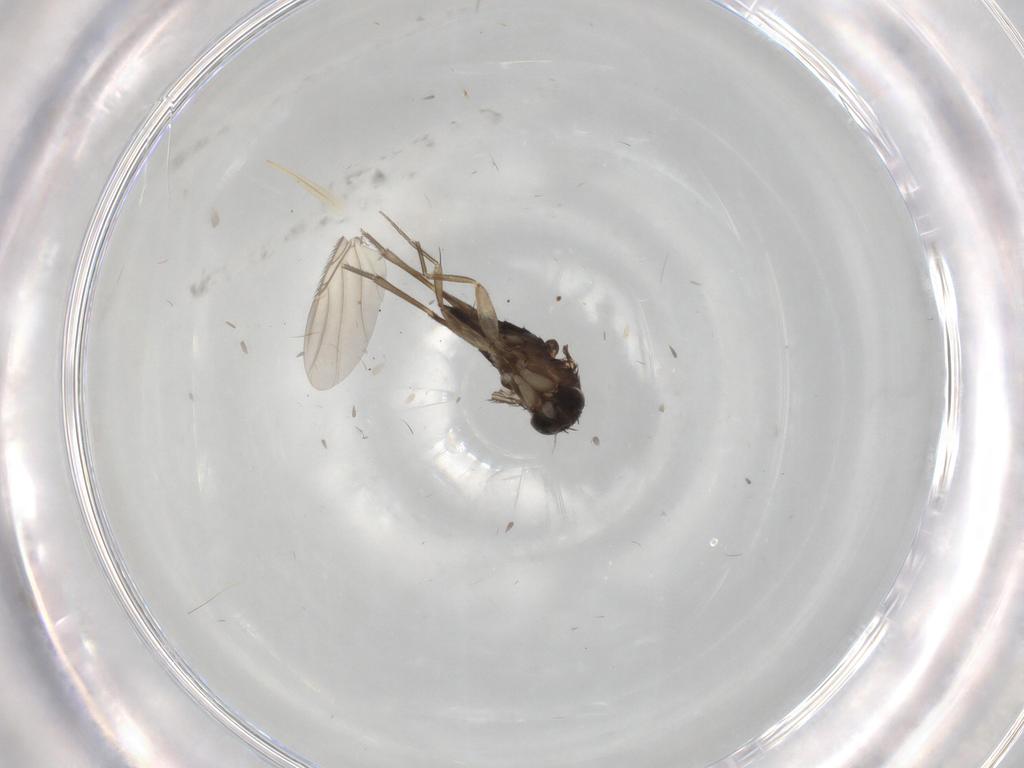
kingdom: Animalia
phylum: Arthropoda
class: Insecta
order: Diptera
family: Phoridae
